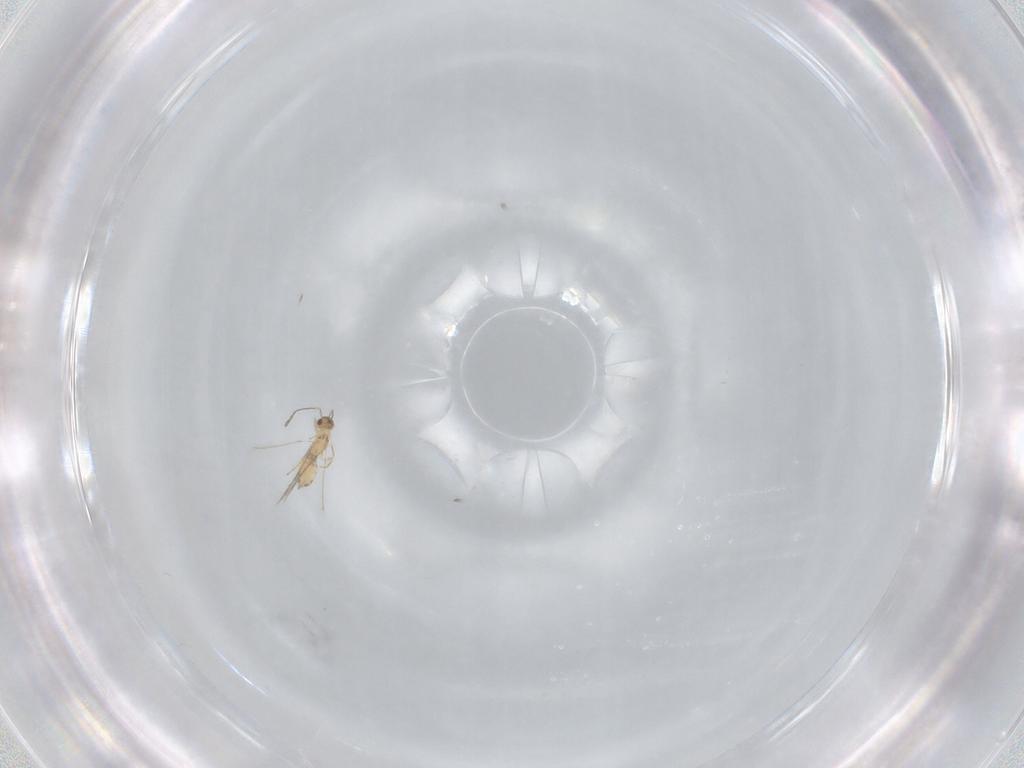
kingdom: Animalia
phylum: Arthropoda
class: Insecta
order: Hymenoptera
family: Mymaridae
